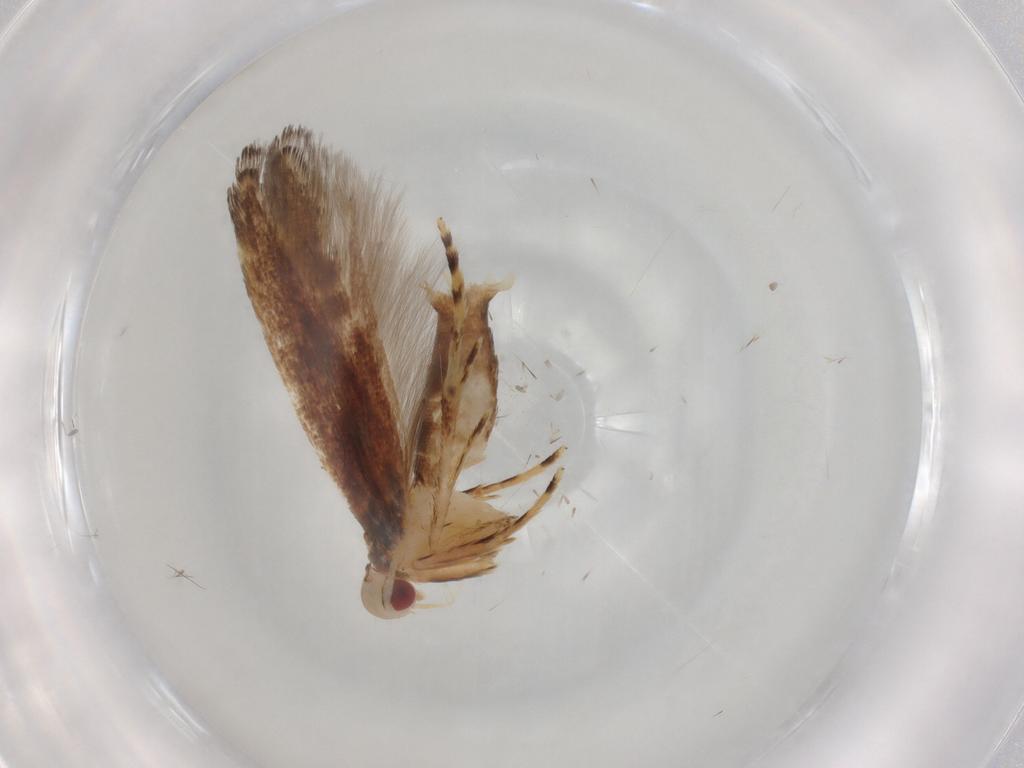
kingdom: Animalia
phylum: Arthropoda
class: Insecta
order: Lepidoptera
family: Cosmopterigidae
